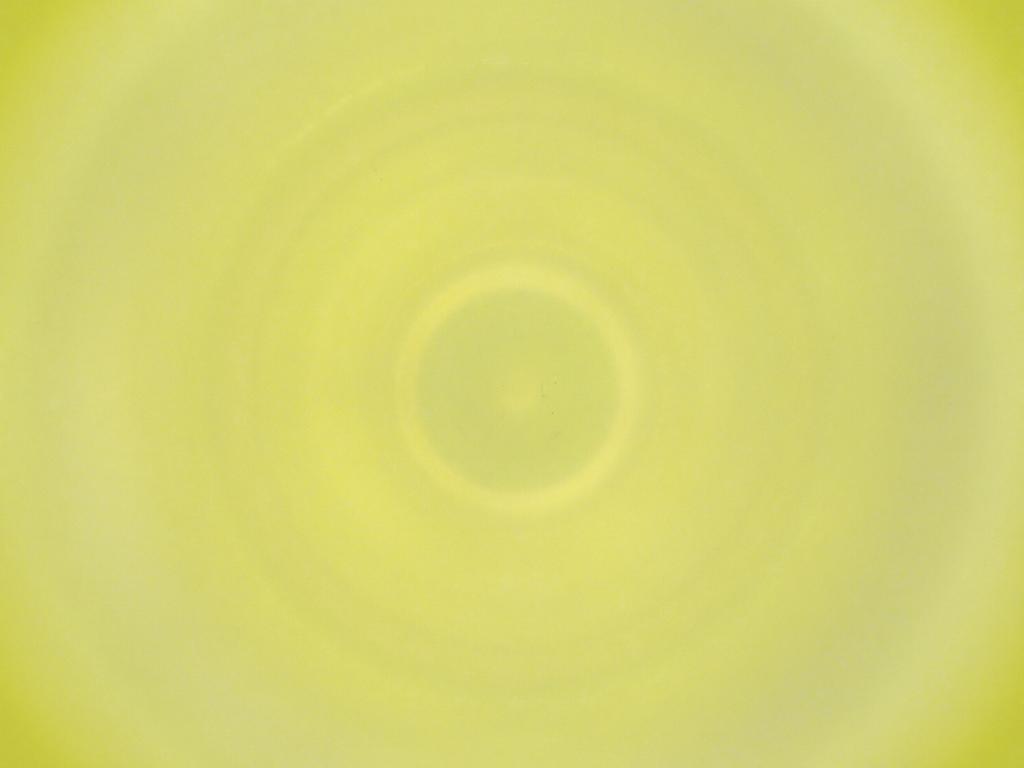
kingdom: Animalia
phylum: Arthropoda
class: Insecta
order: Diptera
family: Cecidomyiidae
